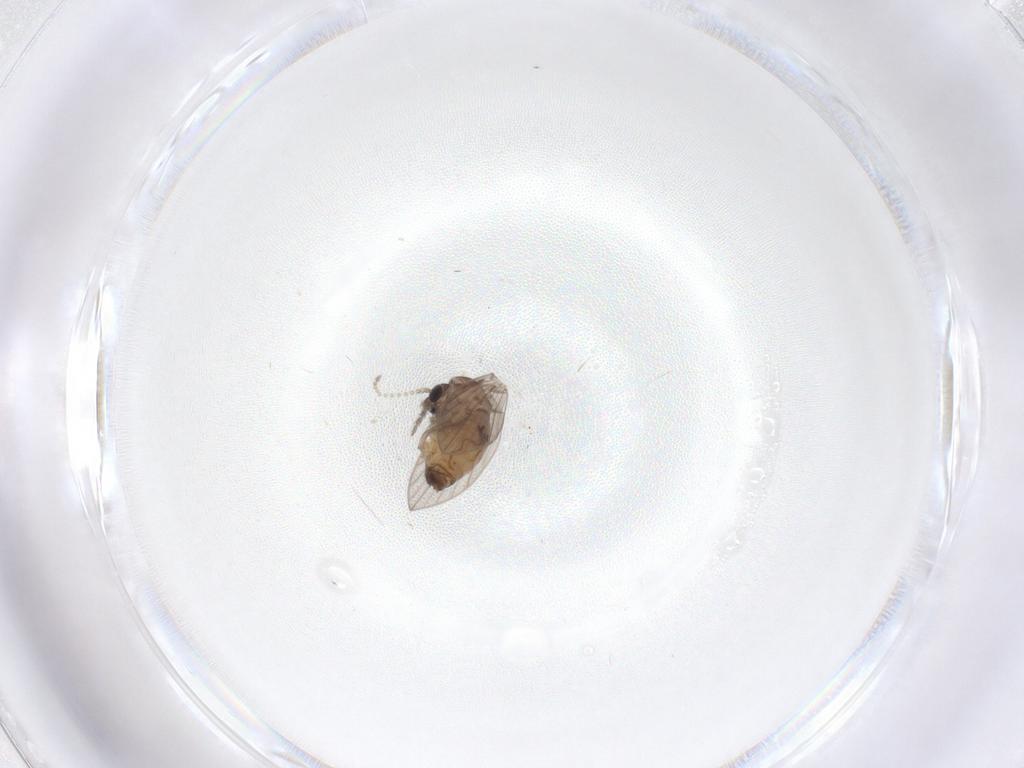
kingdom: Animalia
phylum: Arthropoda
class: Insecta
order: Diptera
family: Psychodidae
